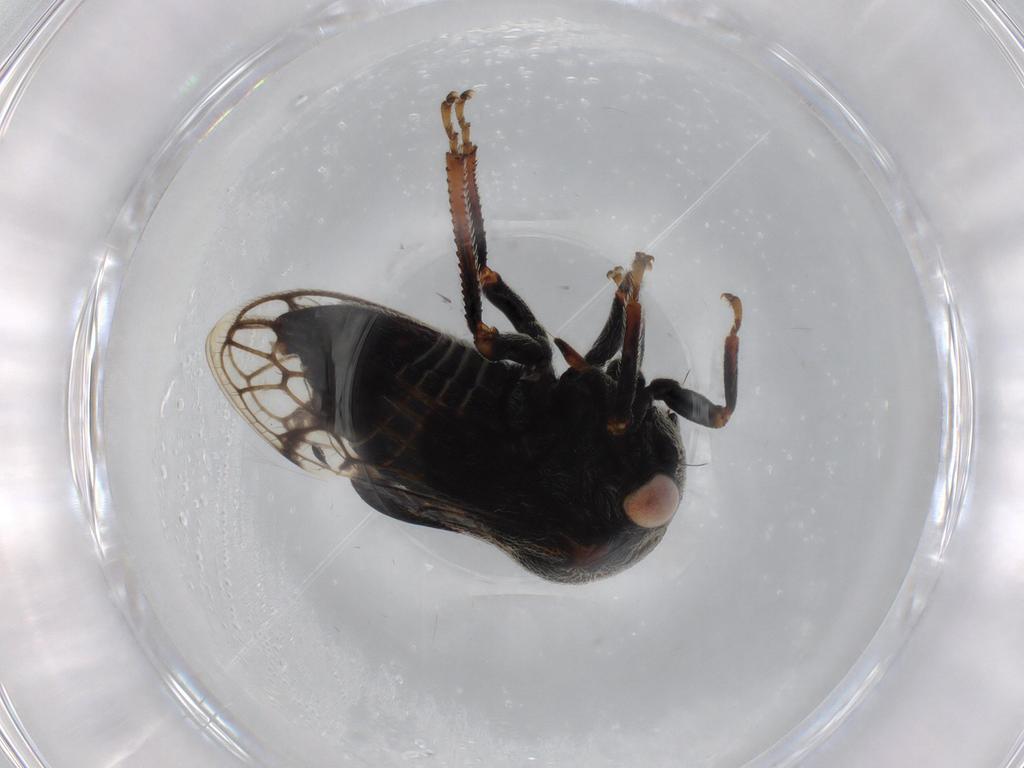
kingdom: Animalia
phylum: Arthropoda
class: Insecta
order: Hemiptera
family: Membracidae
